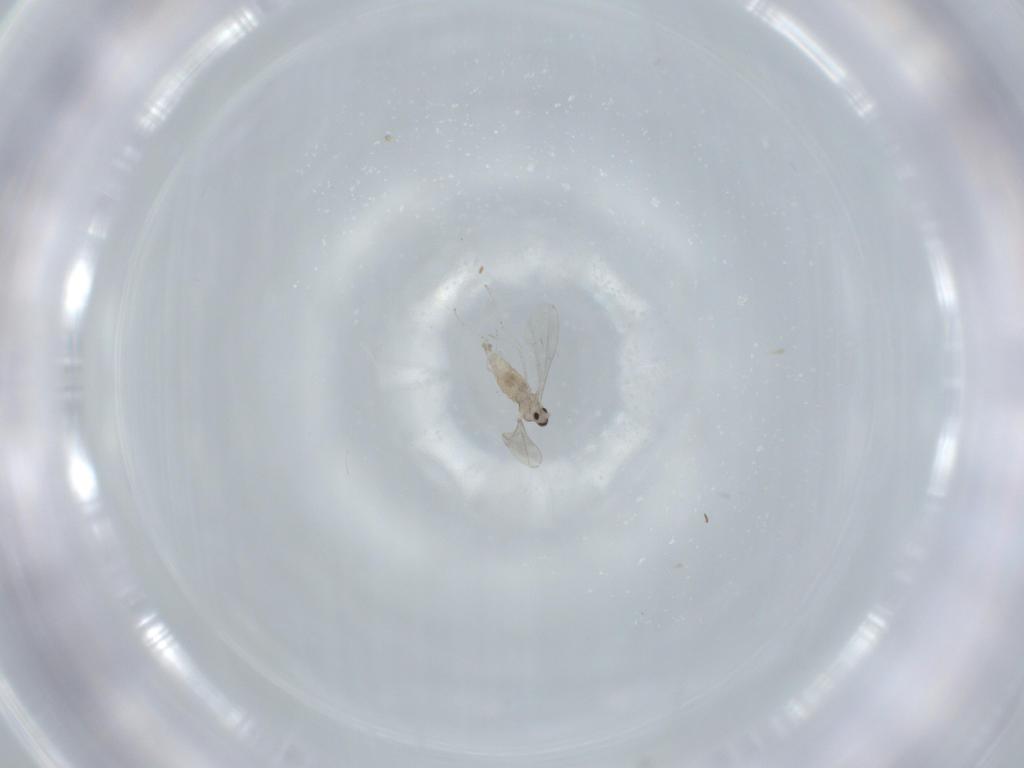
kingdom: Animalia
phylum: Arthropoda
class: Insecta
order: Diptera
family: Cecidomyiidae
